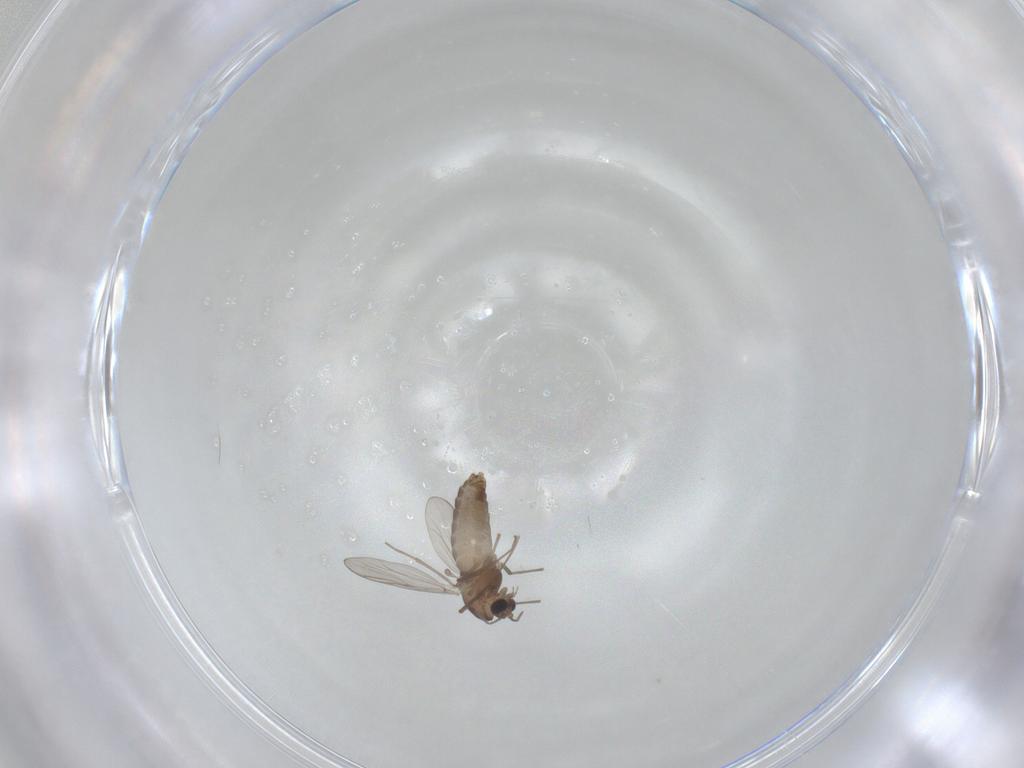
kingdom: Animalia
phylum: Arthropoda
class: Insecta
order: Diptera
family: Chironomidae
